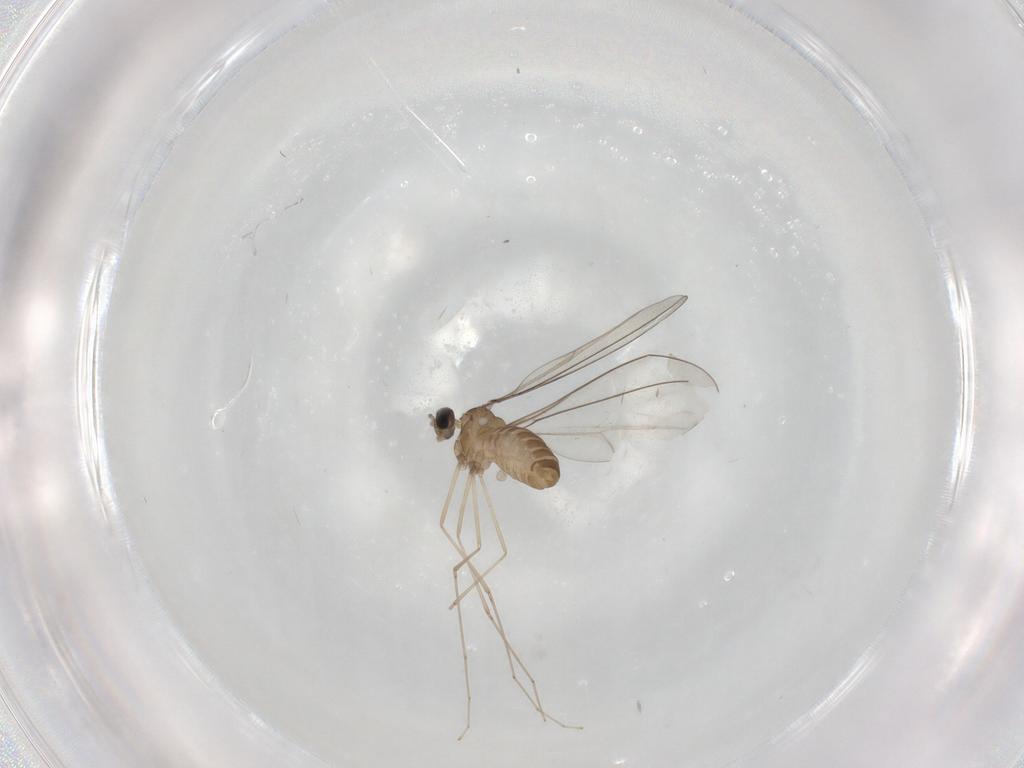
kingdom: Animalia
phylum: Arthropoda
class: Insecta
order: Diptera
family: Cecidomyiidae
